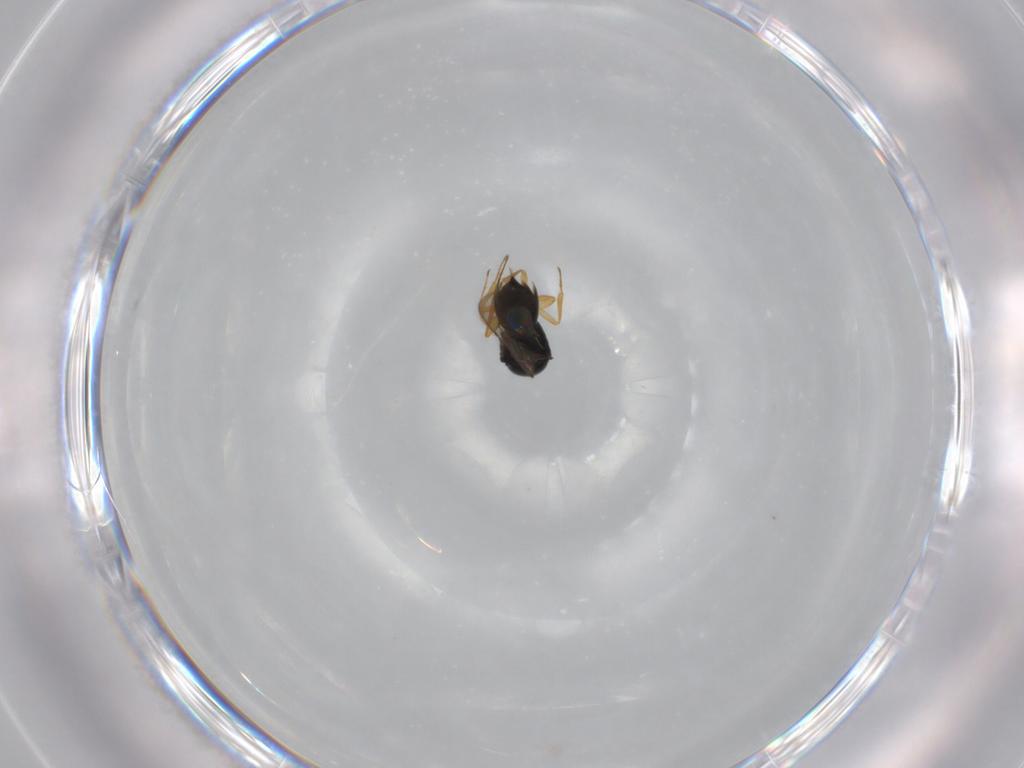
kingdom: Animalia
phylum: Arthropoda
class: Insecta
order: Hymenoptera
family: Scelionidae
